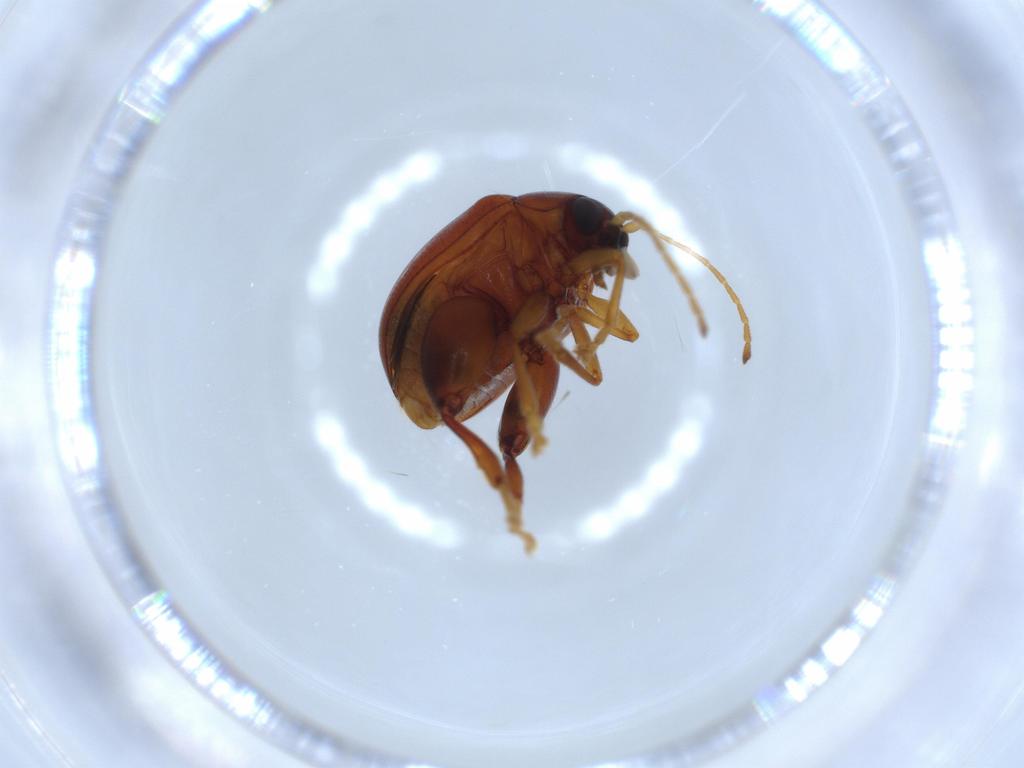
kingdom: Animalia
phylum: Arthropoda
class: Insecta
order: Coleoptera
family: Chrysomelidae
